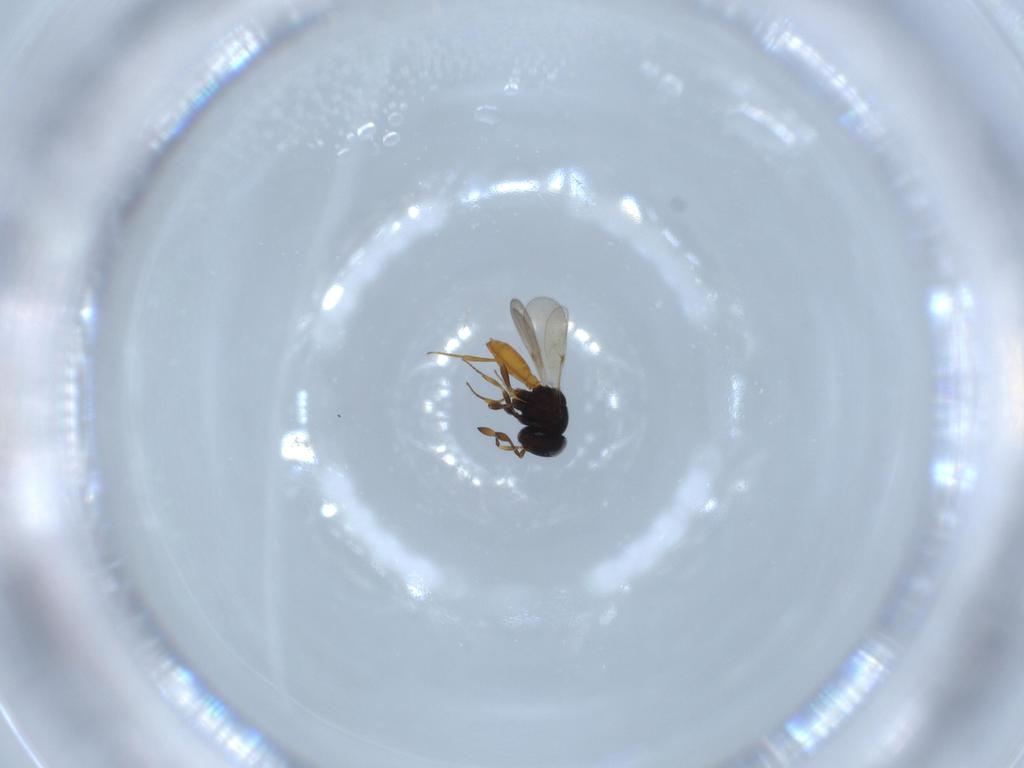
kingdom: Animalia
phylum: Arthropoda
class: Insecta
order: Hymenoptera
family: Scelionidae
